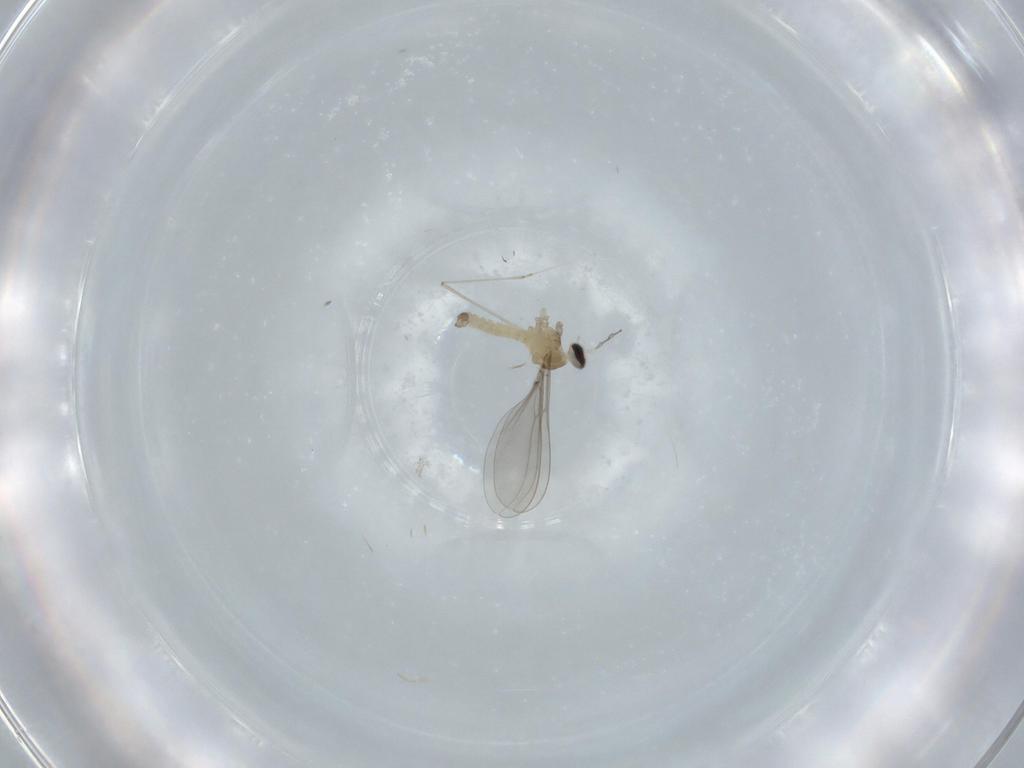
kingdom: Animalia
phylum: Arthropoda
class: Insecta
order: Diptera
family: Cecidomyiidae
